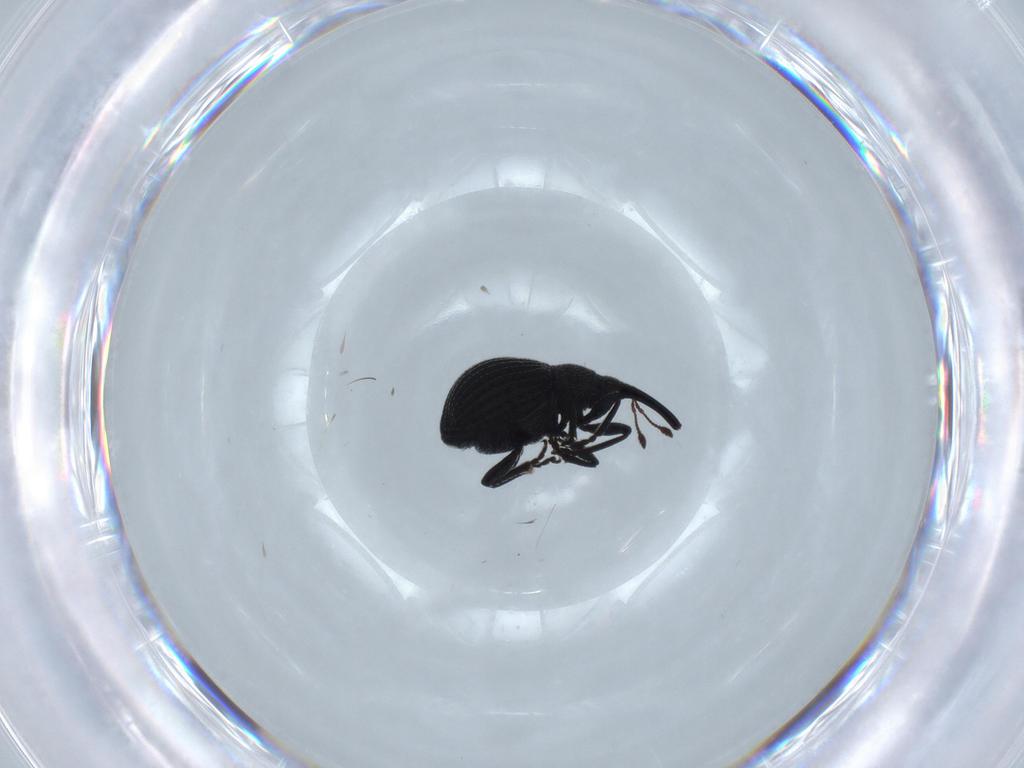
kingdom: Animalia
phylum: Arthropoda
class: Insecta
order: Coleoptera
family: Brentidae
